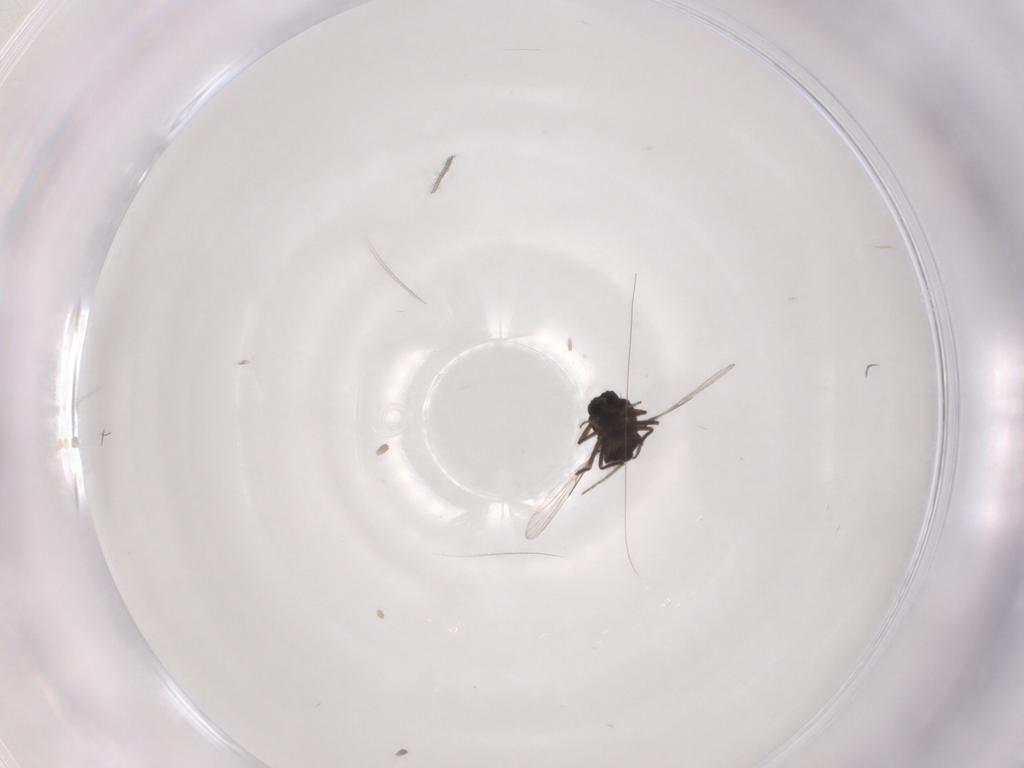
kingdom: Animalia
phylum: Arthropoda
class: Insecta
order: Diptera
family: Ceratopogonidae
